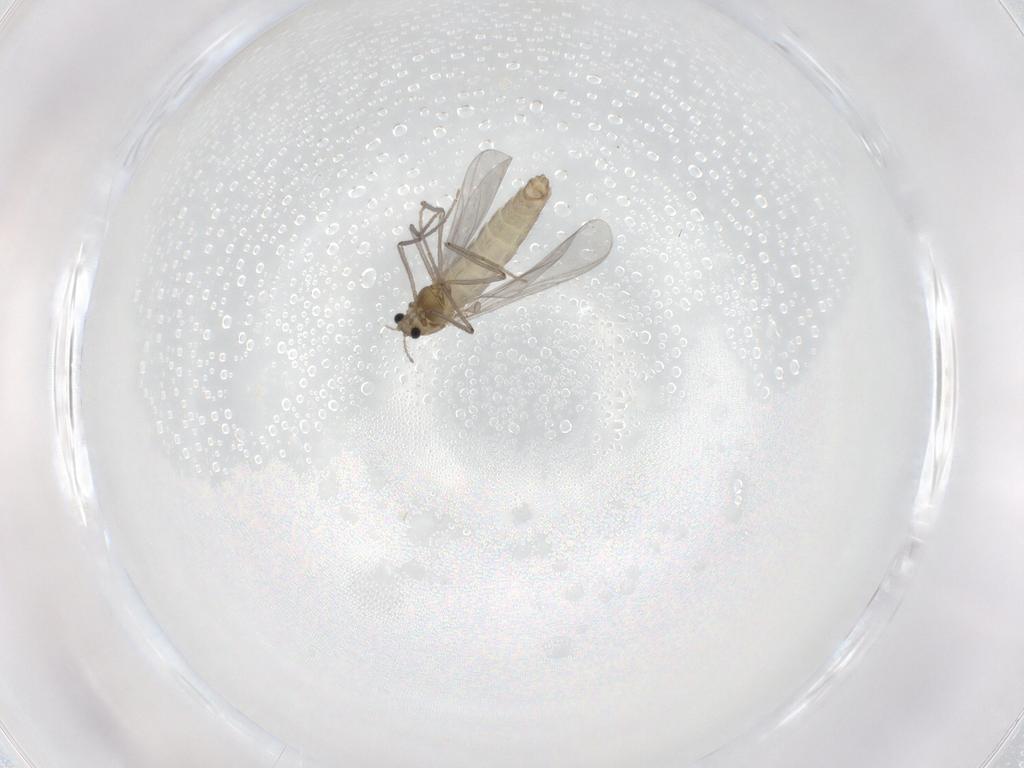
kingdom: Animalia
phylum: Arthropoda
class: Insecta
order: Diptera
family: Chironomidae
